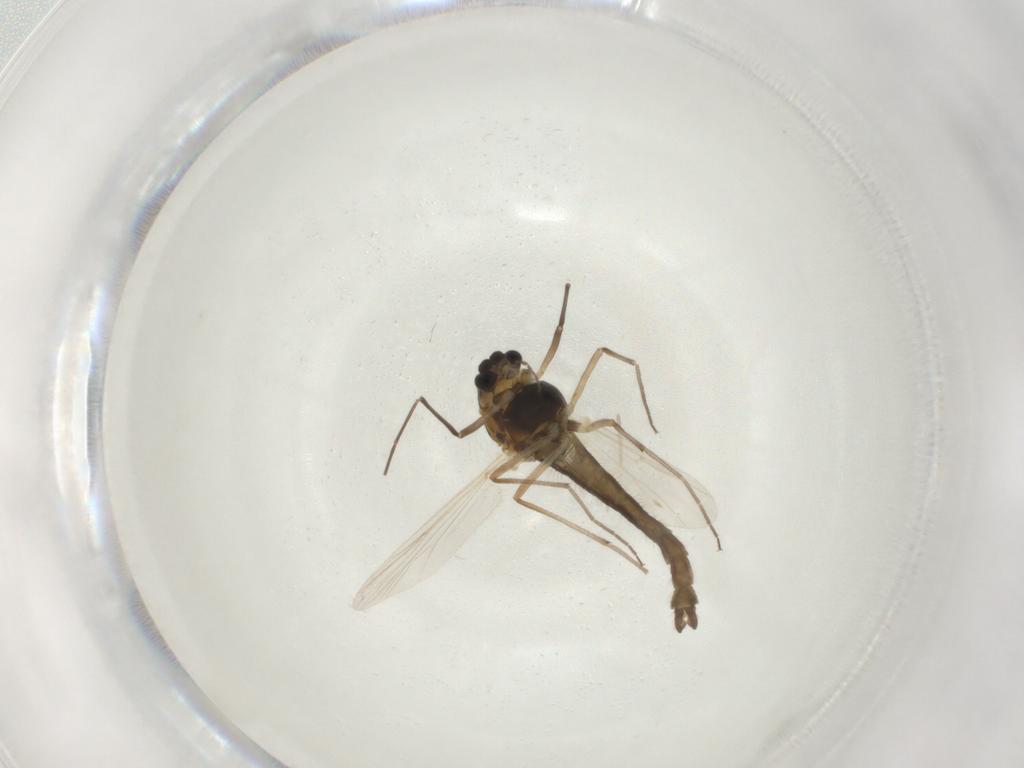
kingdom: Animalia
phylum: Arthropoda
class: Insecta
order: Diptera
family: Chironomidae
